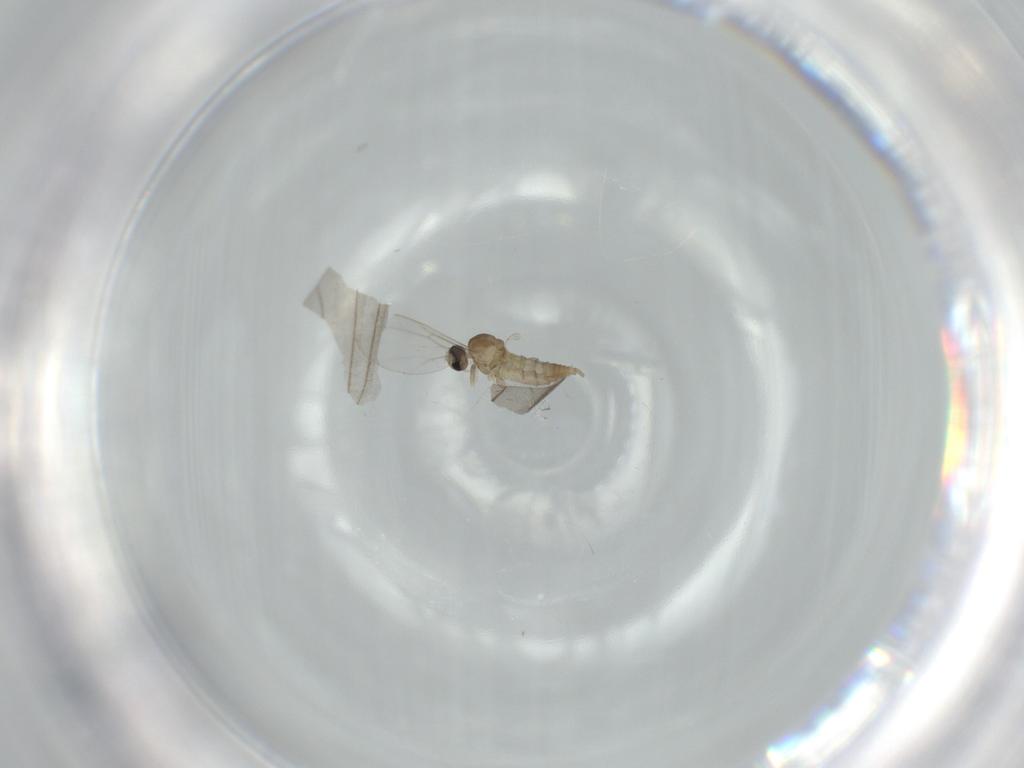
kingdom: Animalia
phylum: Arthropoda
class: Insecta
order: Diptera
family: Cecidomyiidae
